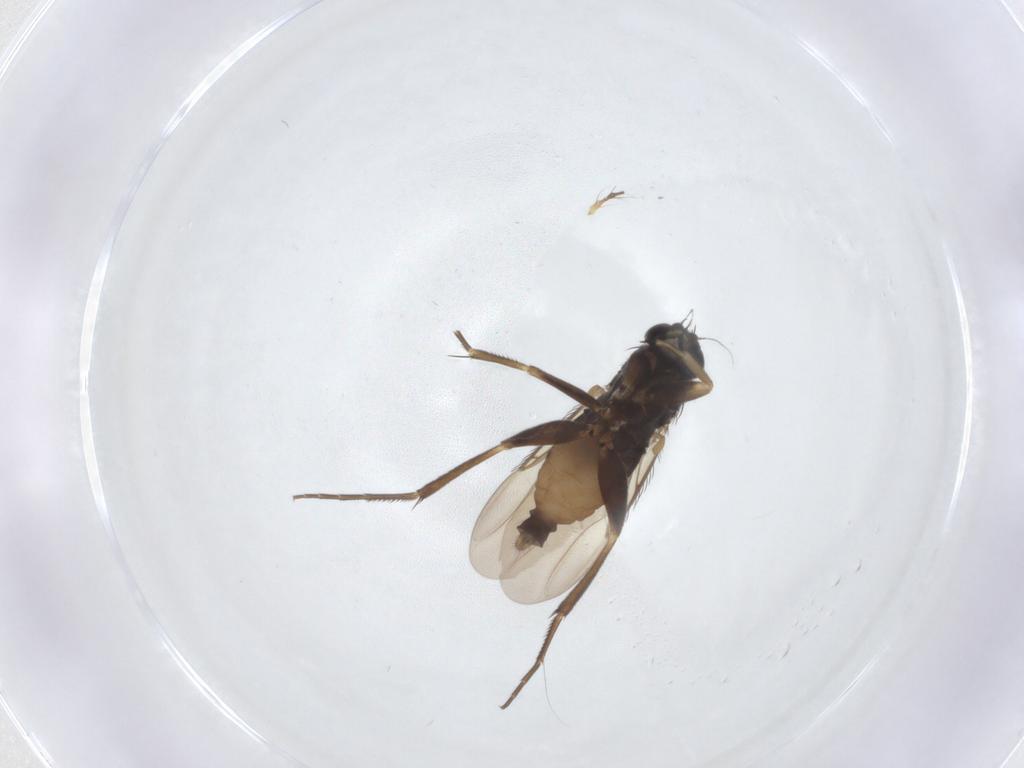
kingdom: Animalia
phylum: Arthropoda
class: Insecta
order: Diptera
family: Phoridae
